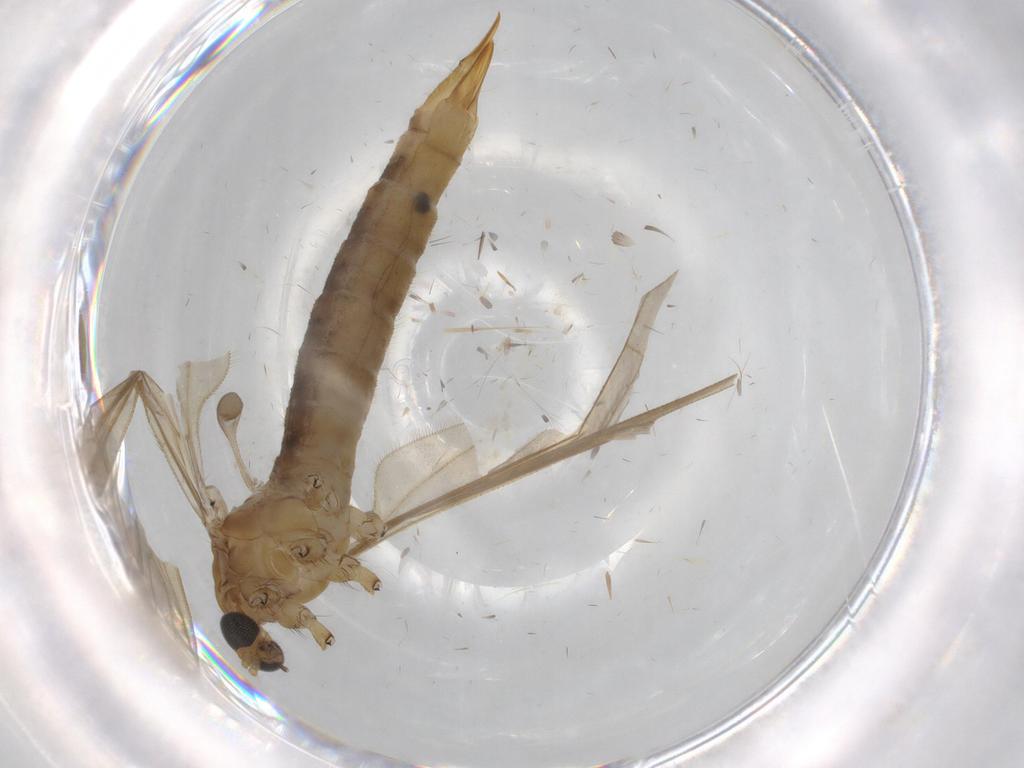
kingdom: Animalia
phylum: Arthropoda
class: Insecta
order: Diptera
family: Limoniidae
